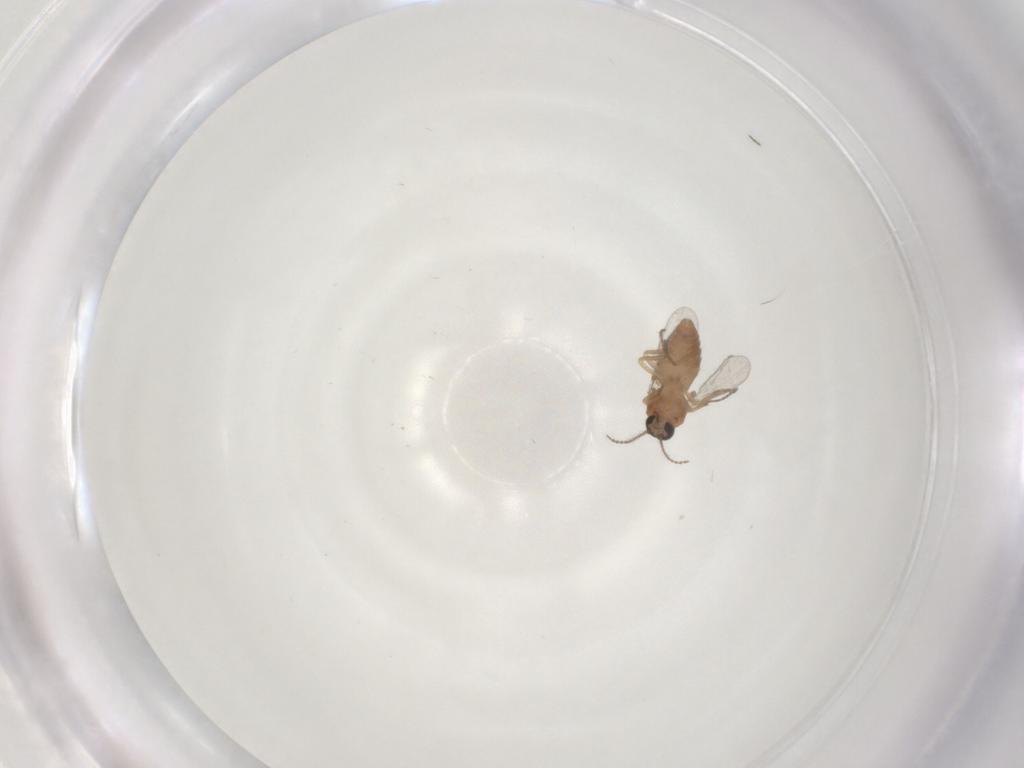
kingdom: Animalia
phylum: Arthropoda
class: Insecta
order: Diptera
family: Ceratopogonidae
